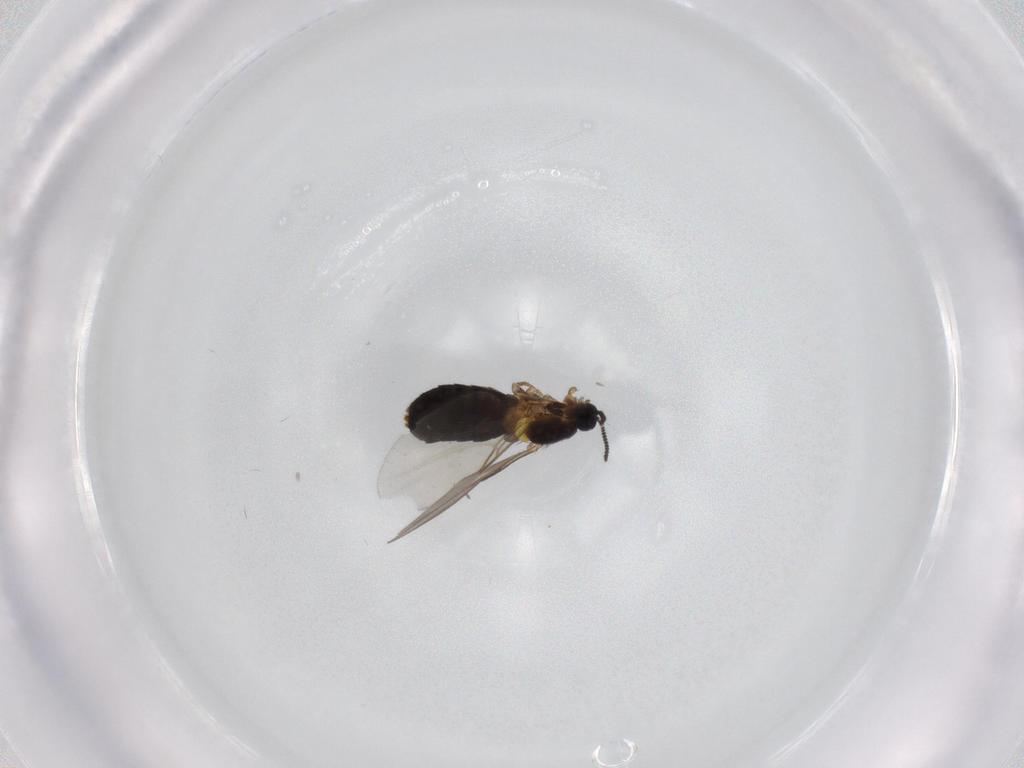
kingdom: Animalia
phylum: Arthropoda
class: Insecta
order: Diptera
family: Scatopsidae
